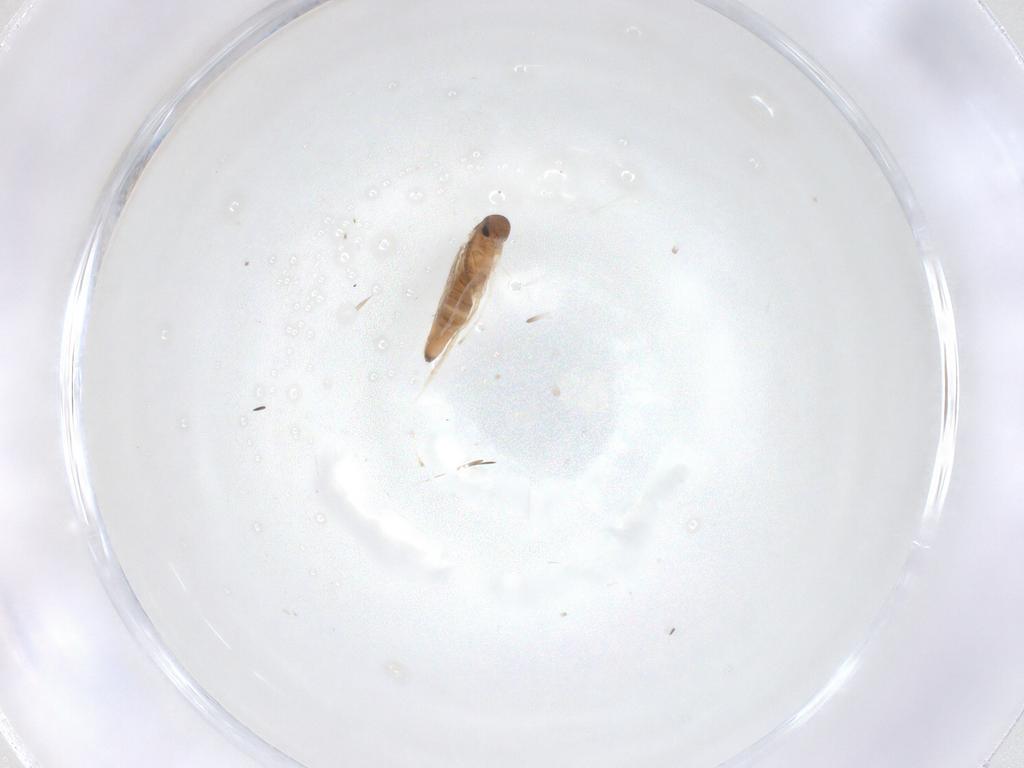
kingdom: Animalia
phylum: Arthropoda
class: Insecta
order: Lepidoptera
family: Heliozelidae
